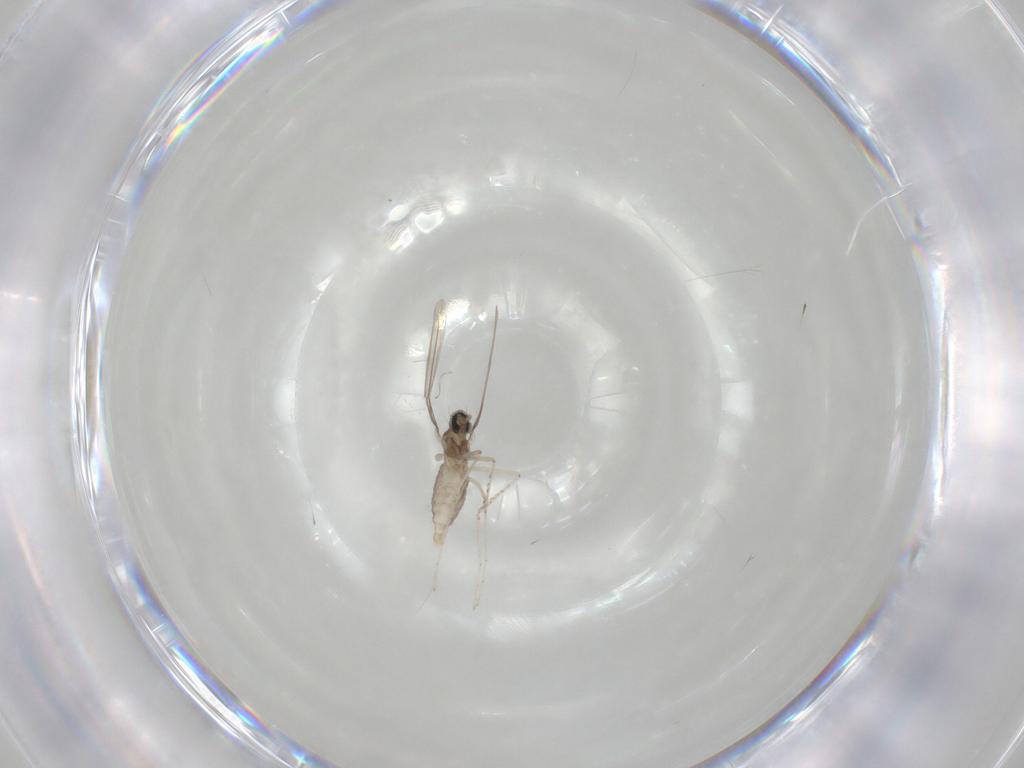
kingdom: Animalia
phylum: Arthropoda
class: Insecta
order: Diptera
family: Cecidomyiidae
